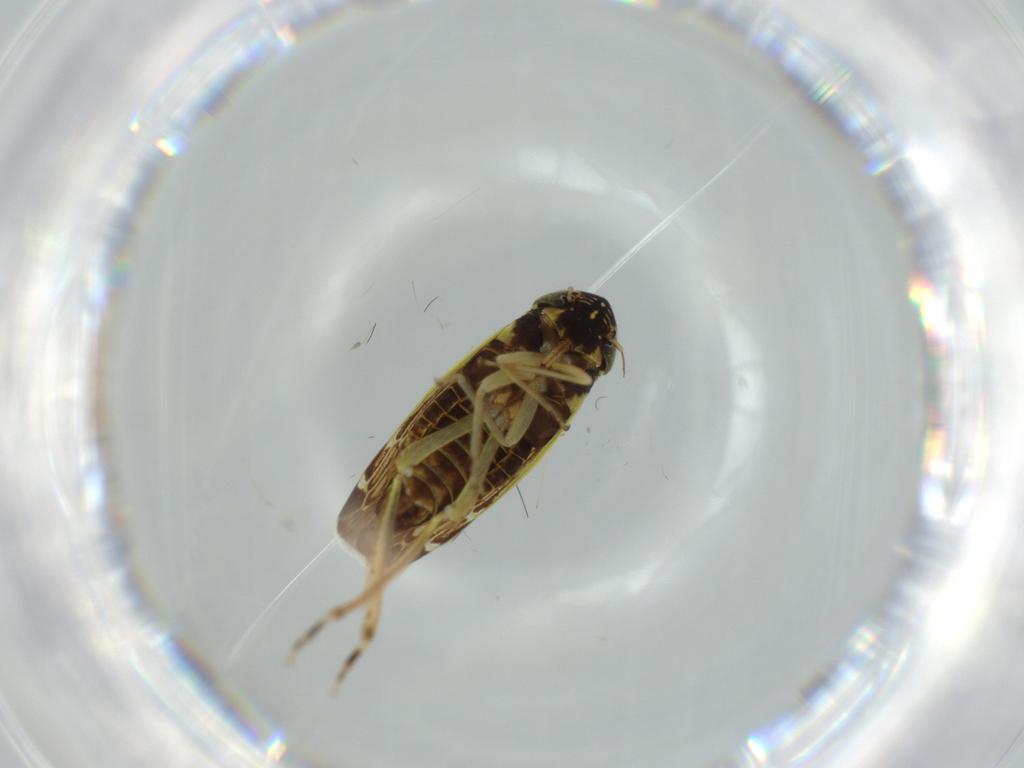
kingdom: Animalia
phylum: Arthropoda
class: Insecta
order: Hemiptera
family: Cicadellidae
